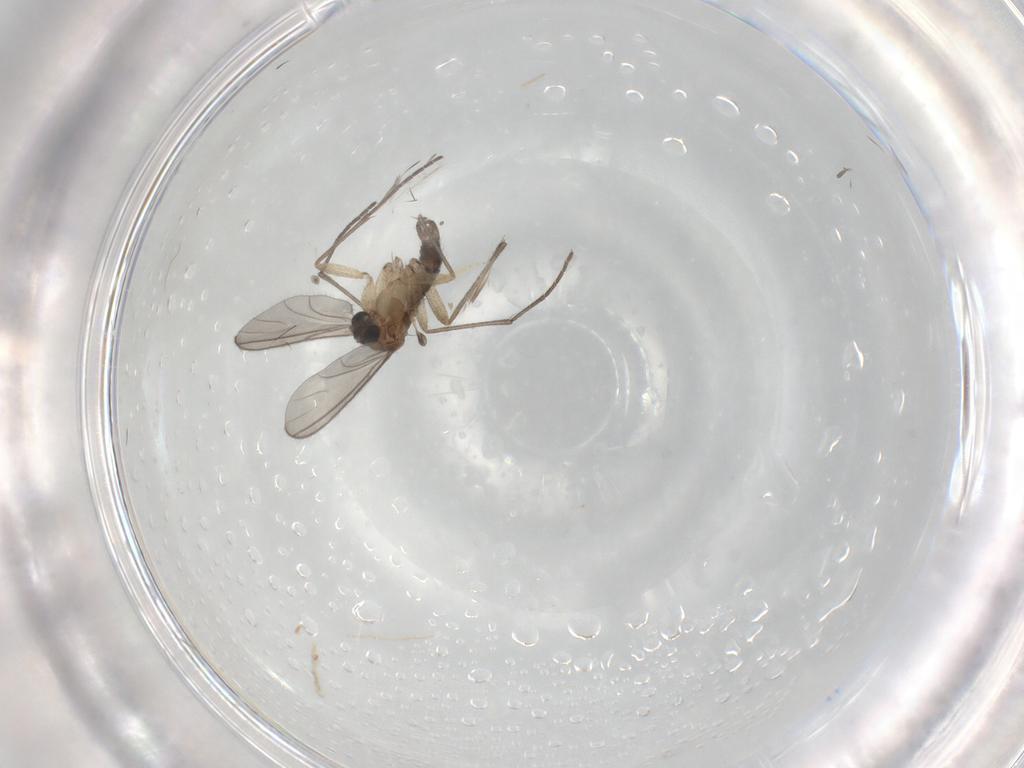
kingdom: Animalia
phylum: Arthropoda
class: Insecta
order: Diptera
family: Sciaridae
